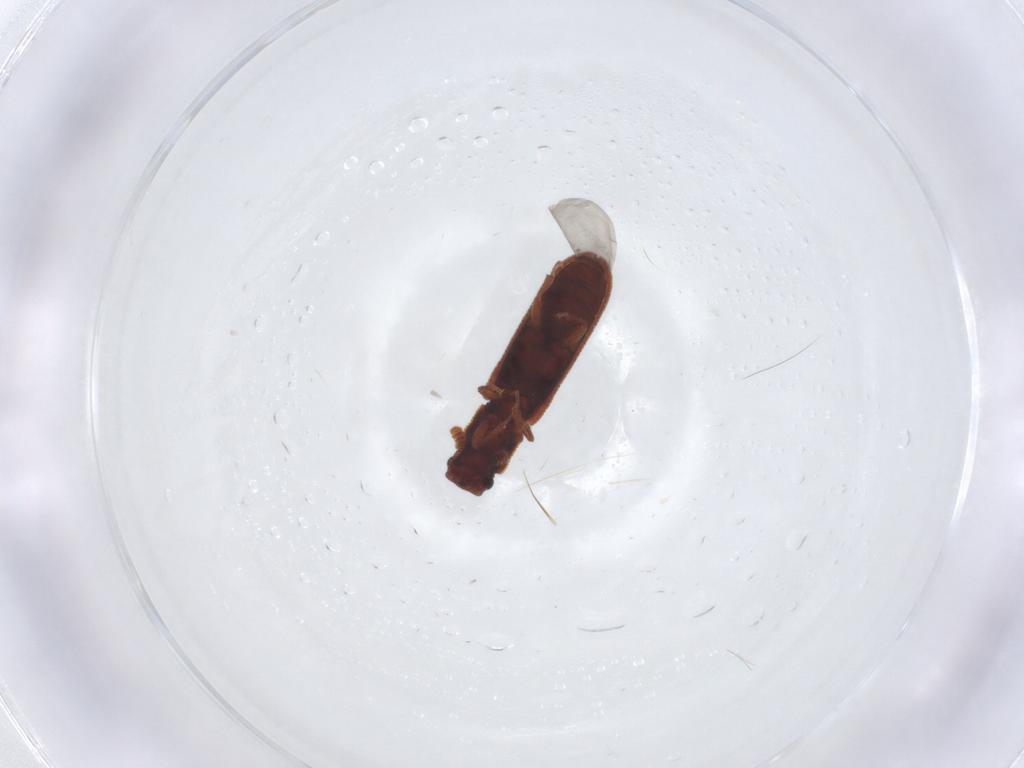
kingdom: Animalia
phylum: Arthropoda
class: Insecta
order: Coleoptera
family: Zopheridae
